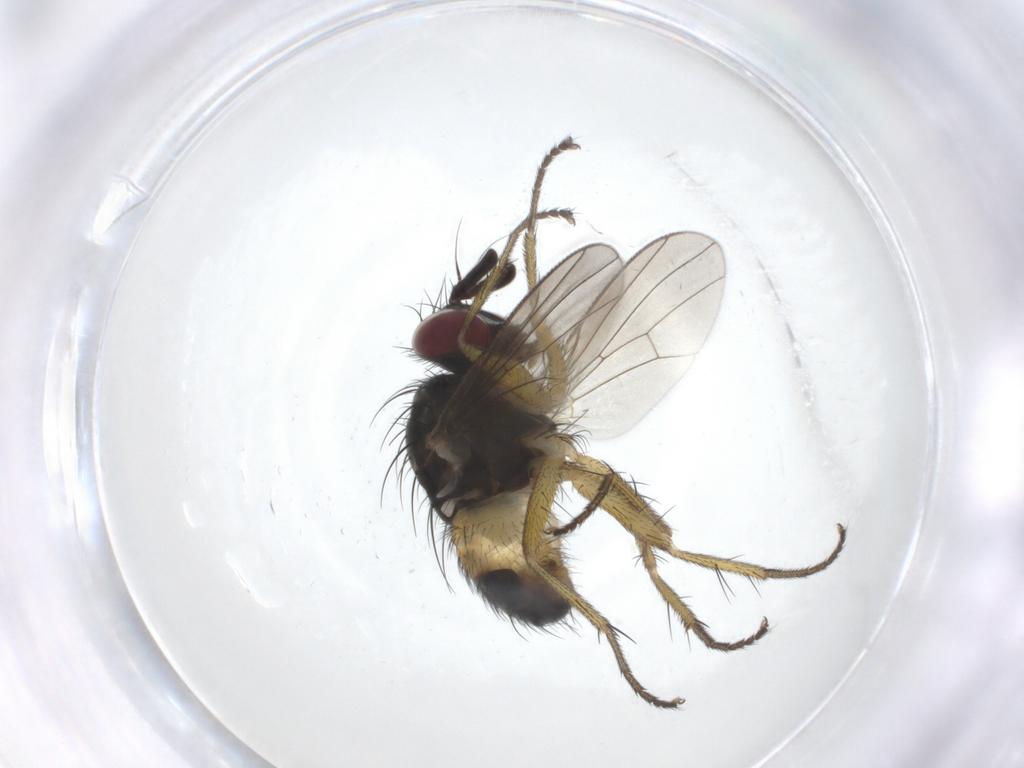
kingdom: Animalia
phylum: Arthropoda
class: Insecta
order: Diptera
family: Muscidae
